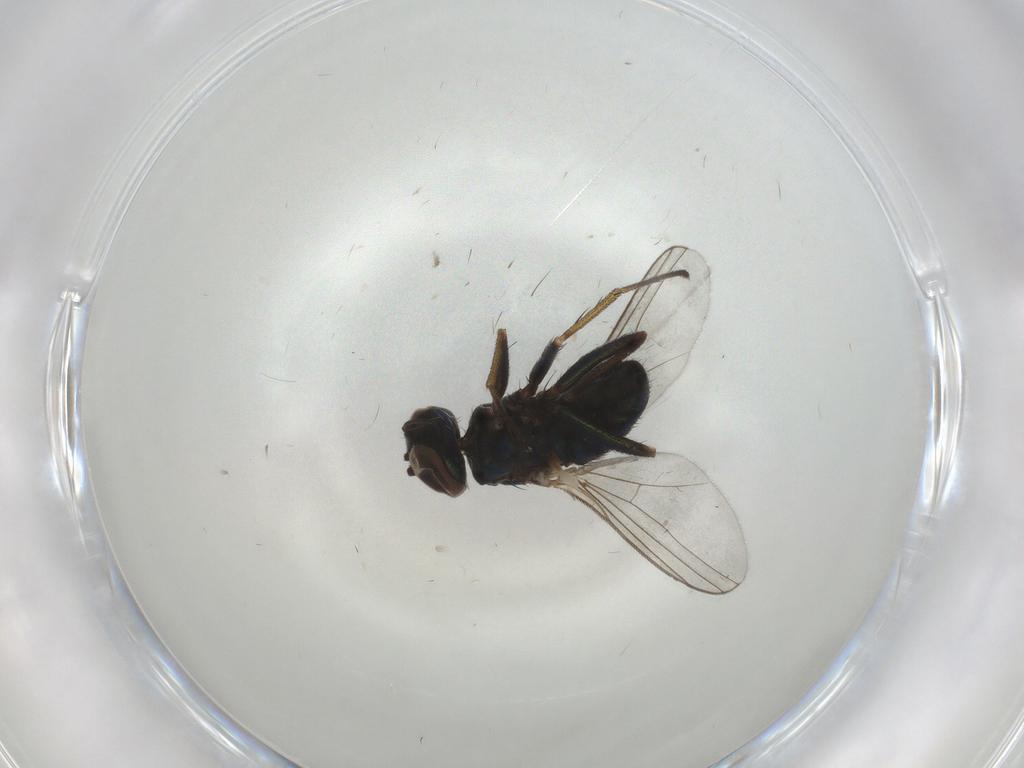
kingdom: Animalia
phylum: Arthropoda
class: Insecta
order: Diptera
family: Dolichopodidae
